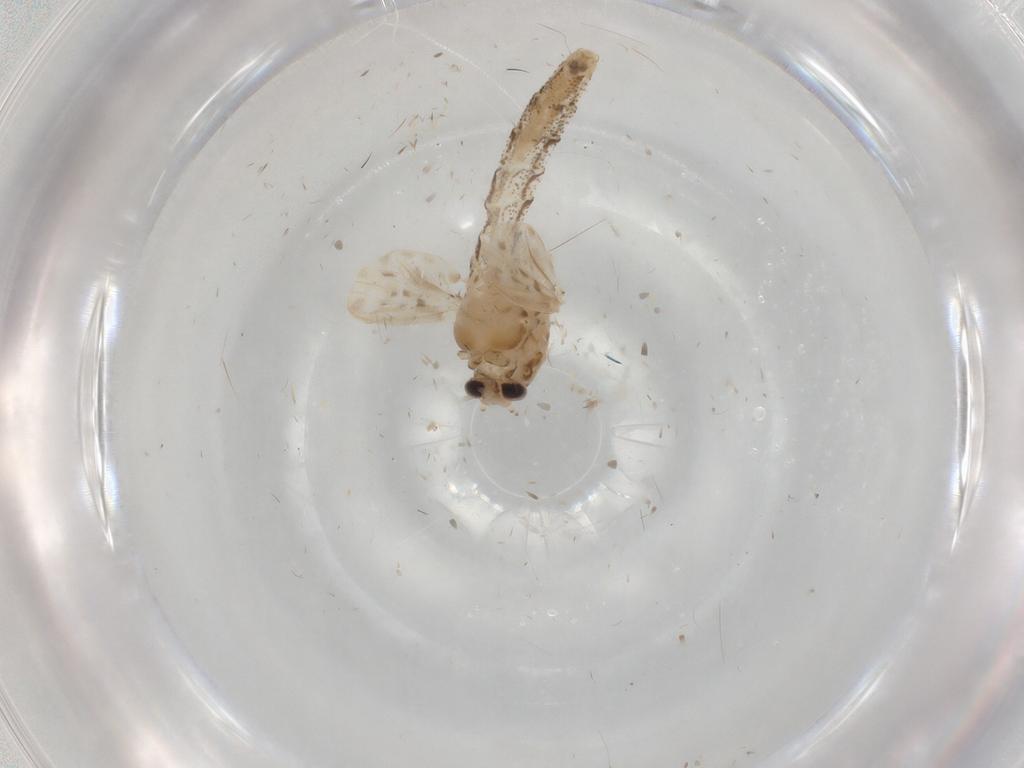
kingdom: Animalia
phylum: Arthropoda
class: Insecta
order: Diptera
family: Chaoboridae
